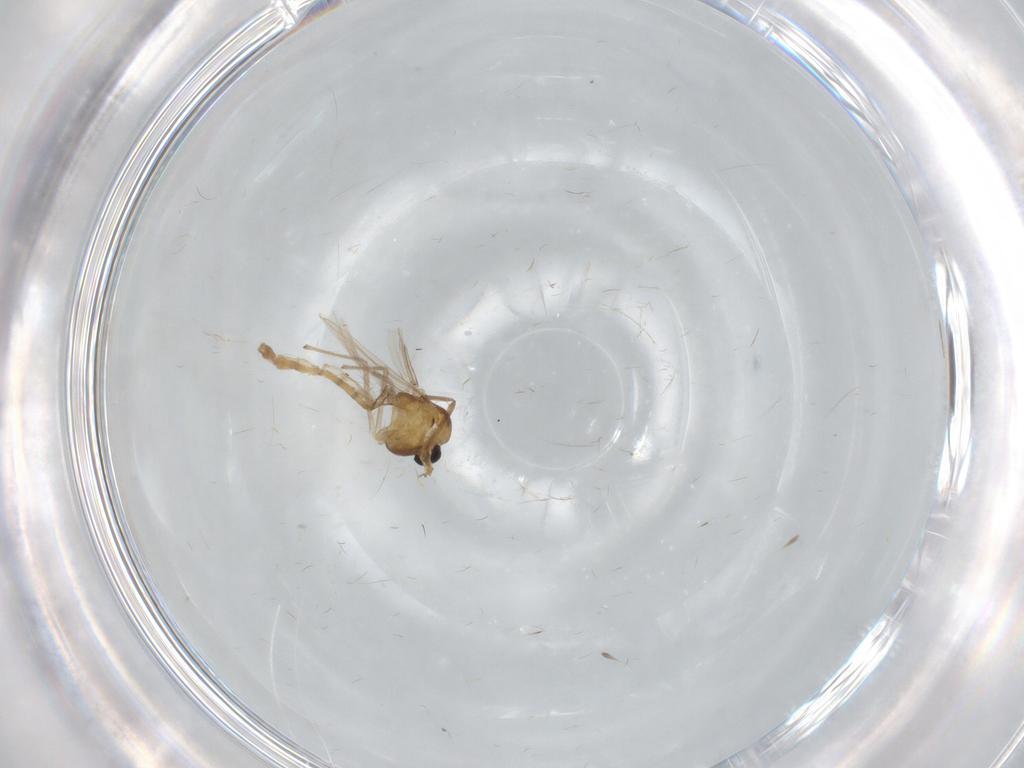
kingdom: Animalia
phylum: Arthropoda
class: Insecta
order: Diptera
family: Chironomidae
